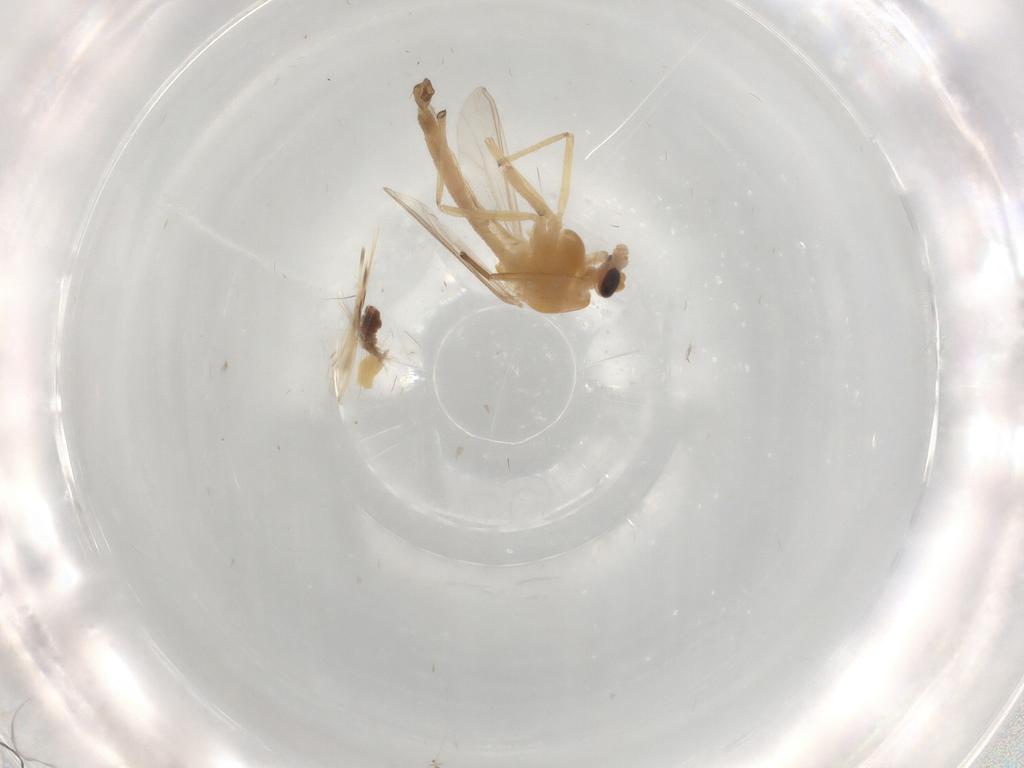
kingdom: Animalia
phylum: Arthropoda
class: Insecta
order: Diptera
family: Chironomidae
